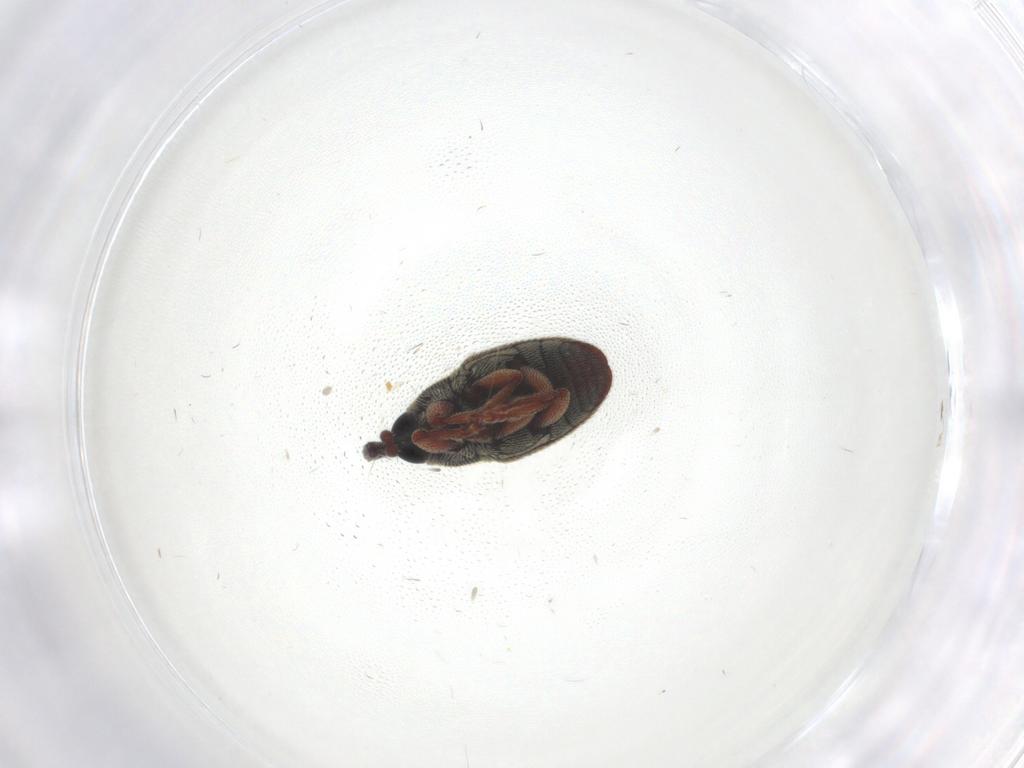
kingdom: Animalia
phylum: Arthropoda
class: Insecta
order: Coleoptera
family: Curculionidae
